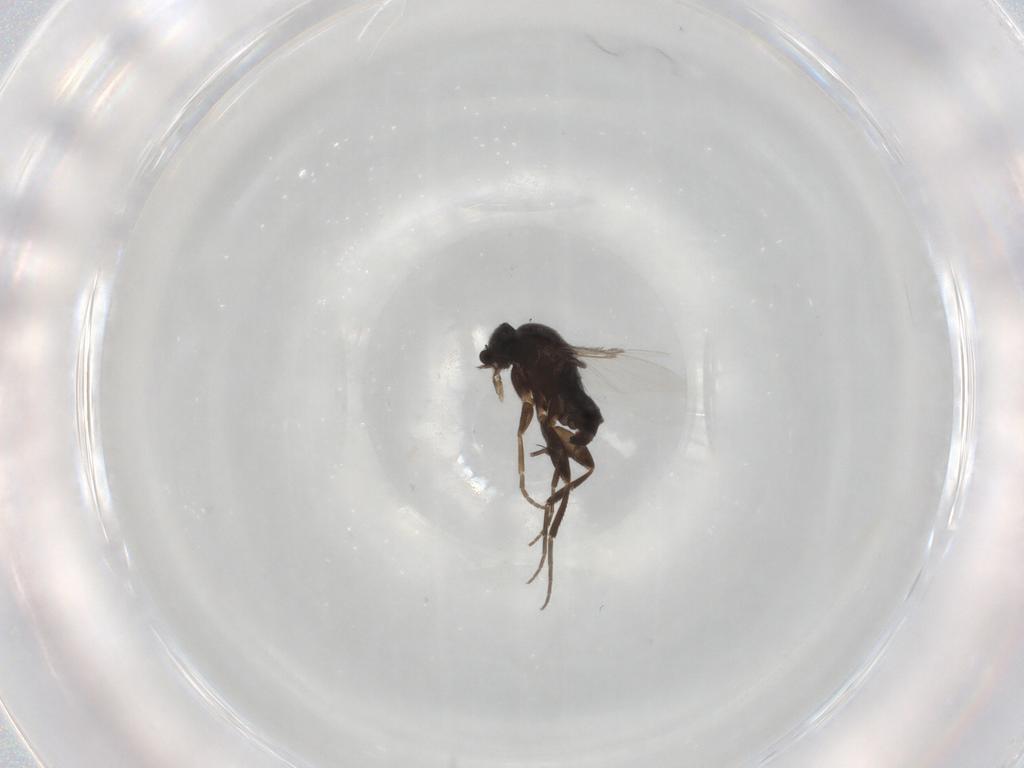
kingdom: Animalia
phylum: Arthropoda
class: Insecta
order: Diptera
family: Phoridae
